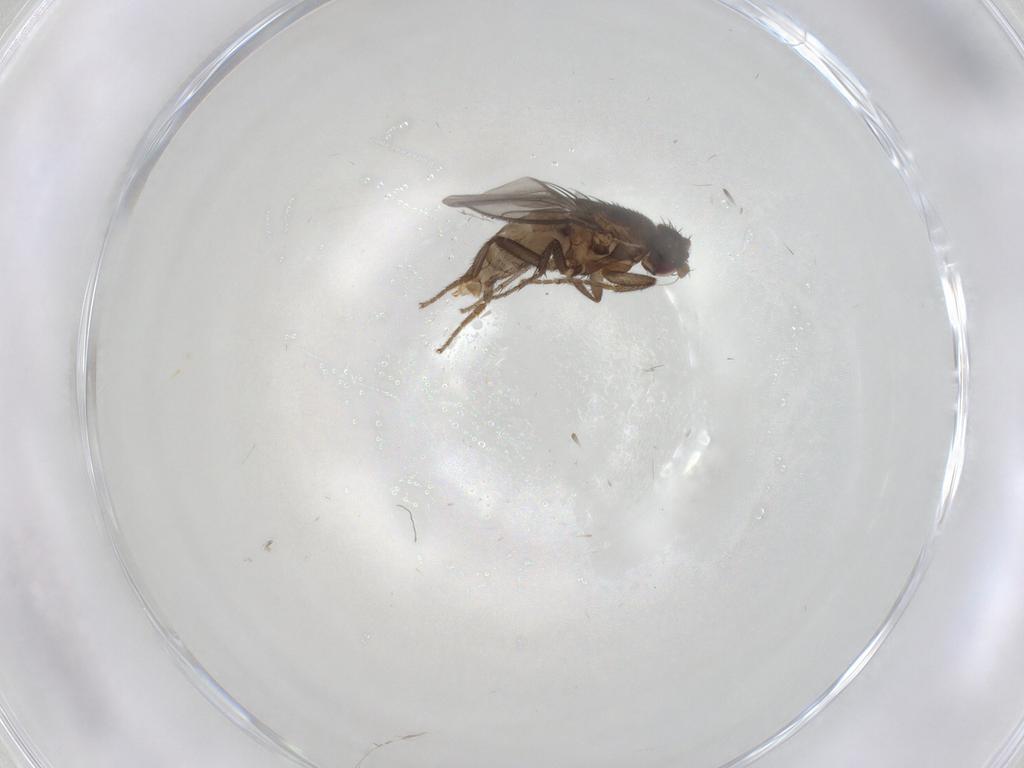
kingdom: Animalia
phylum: Arthropoda
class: Insecta
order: Diptera
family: Sphaeroceridae
